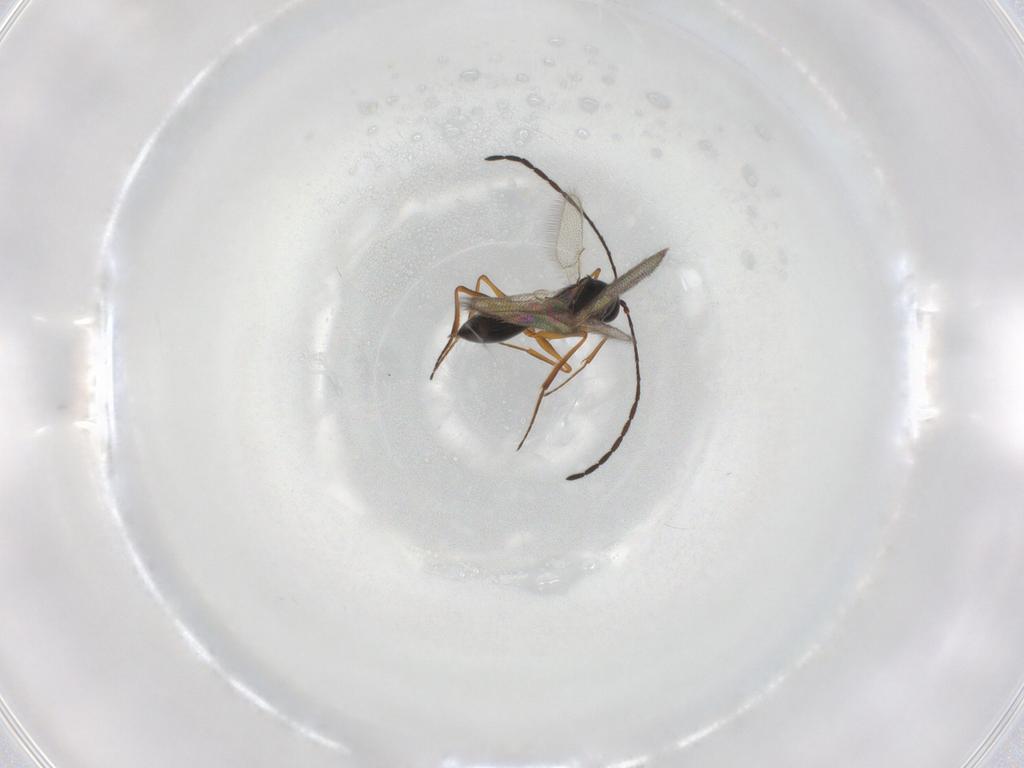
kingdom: Animalia
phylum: Arthropoda
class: Insecta
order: Hymenoptera
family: Figitidae
